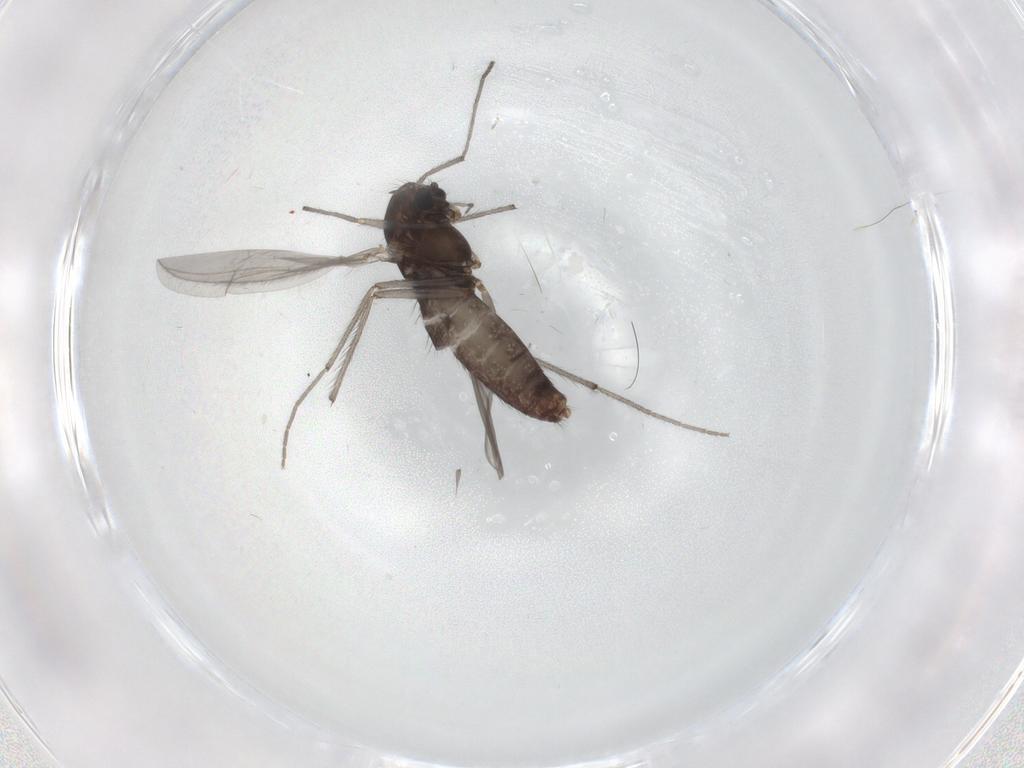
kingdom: Animalia
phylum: Arthropoda
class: Insecta
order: Diptera
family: Chironomidae
